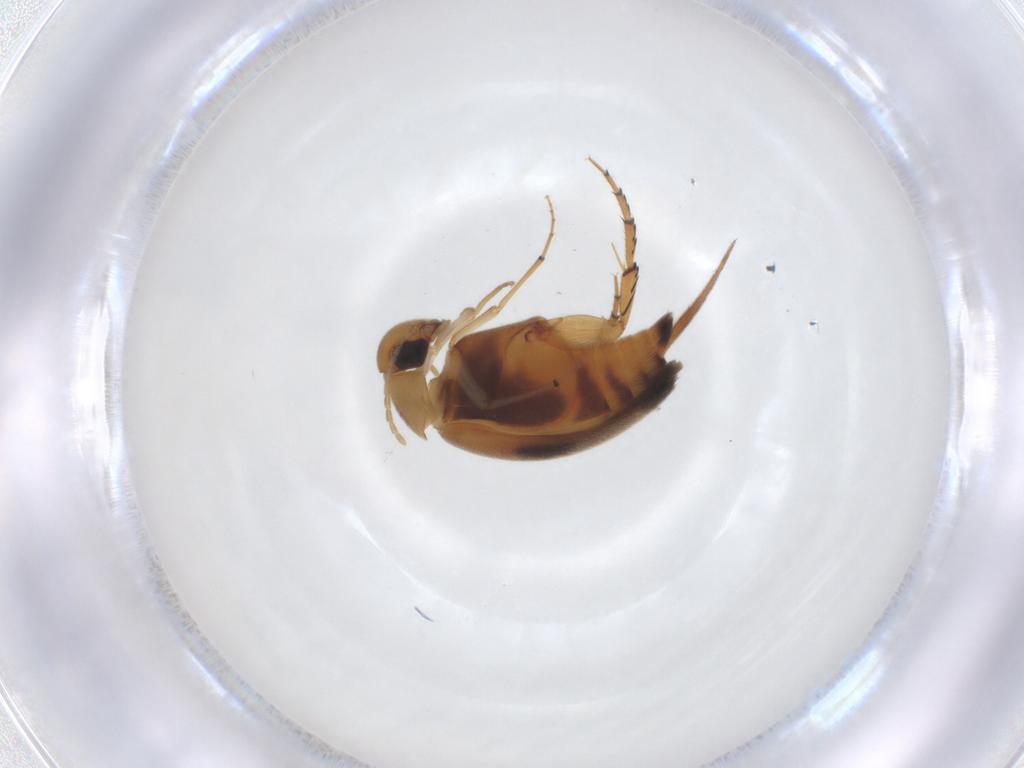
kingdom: Animalia
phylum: Arthropoda
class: Insecta
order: Coleoptera
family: Mordellidae
